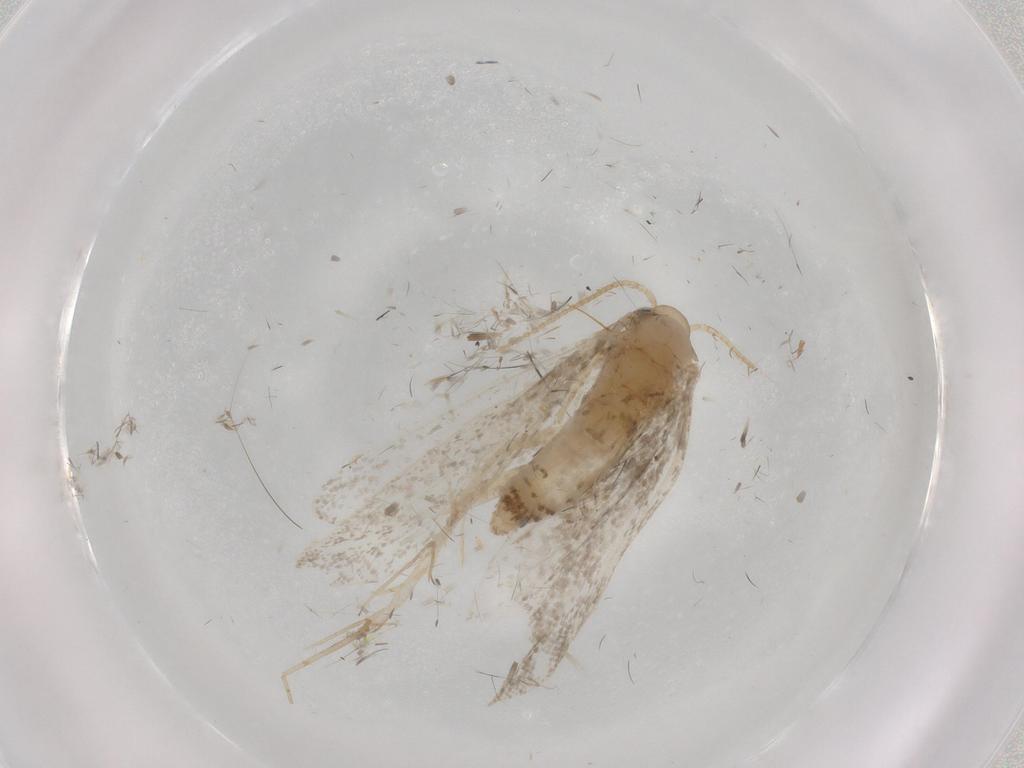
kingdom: Animalia
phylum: Arthropoda
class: Insecta
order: Lepidoptera
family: Psychidae
